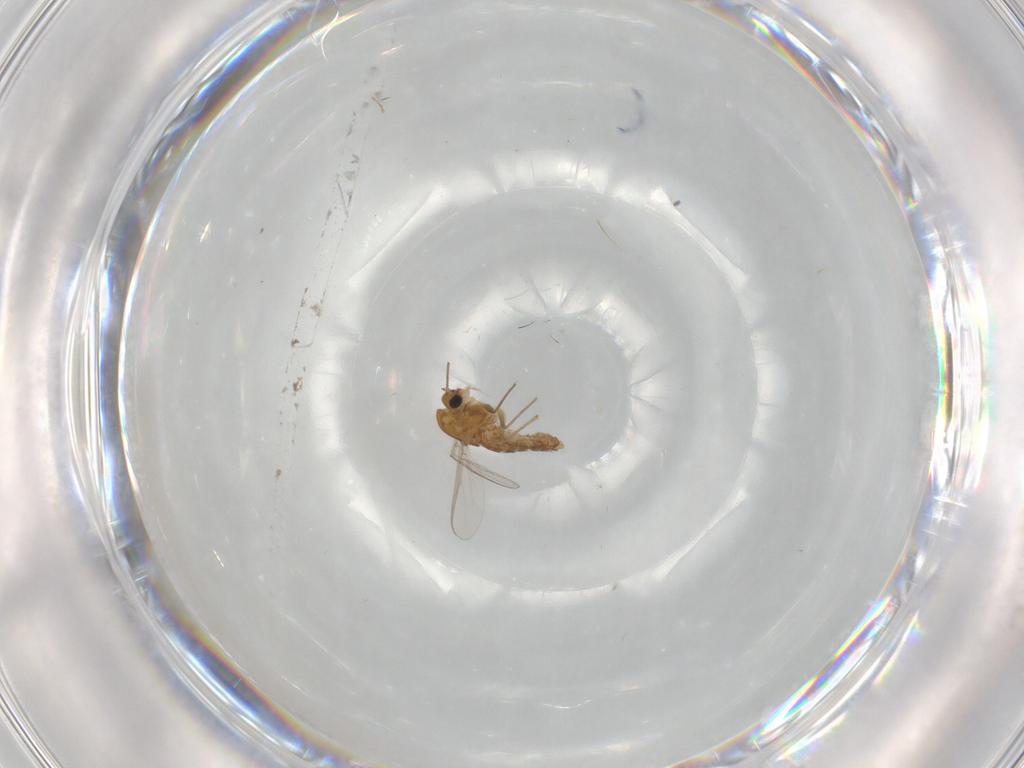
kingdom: Animalia
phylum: Arthropoda
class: Insecta
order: Diptera
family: Chironomidae
